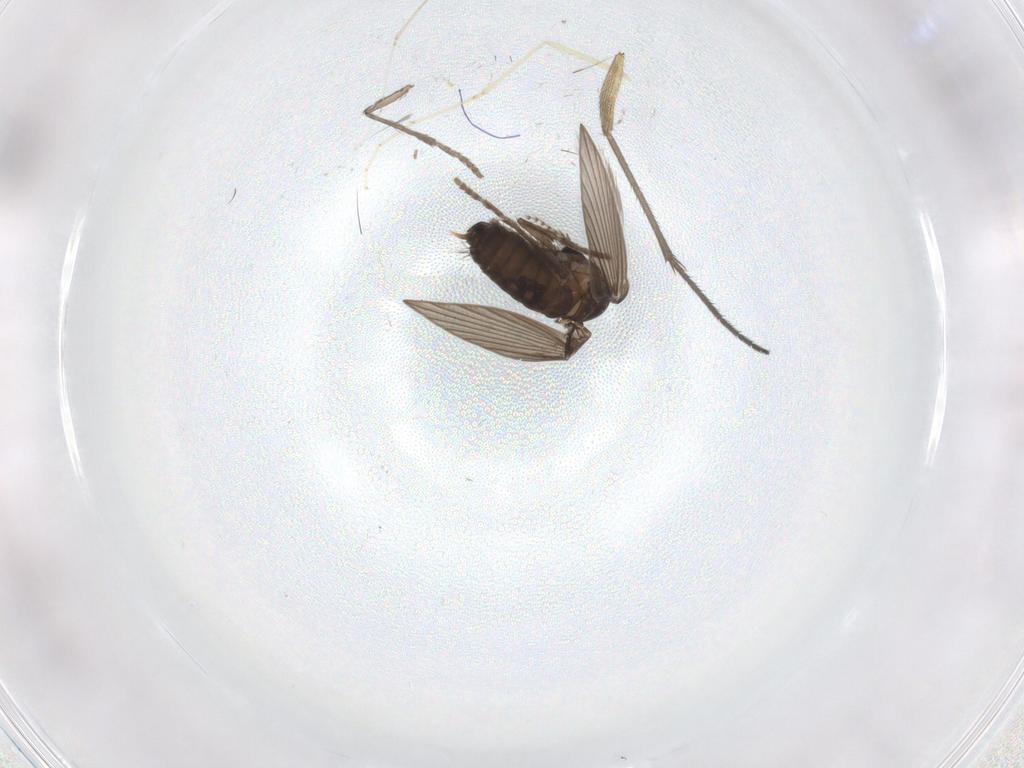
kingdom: Animalia
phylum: Arthropoda
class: Insecta
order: Diptera
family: Psychodidae
